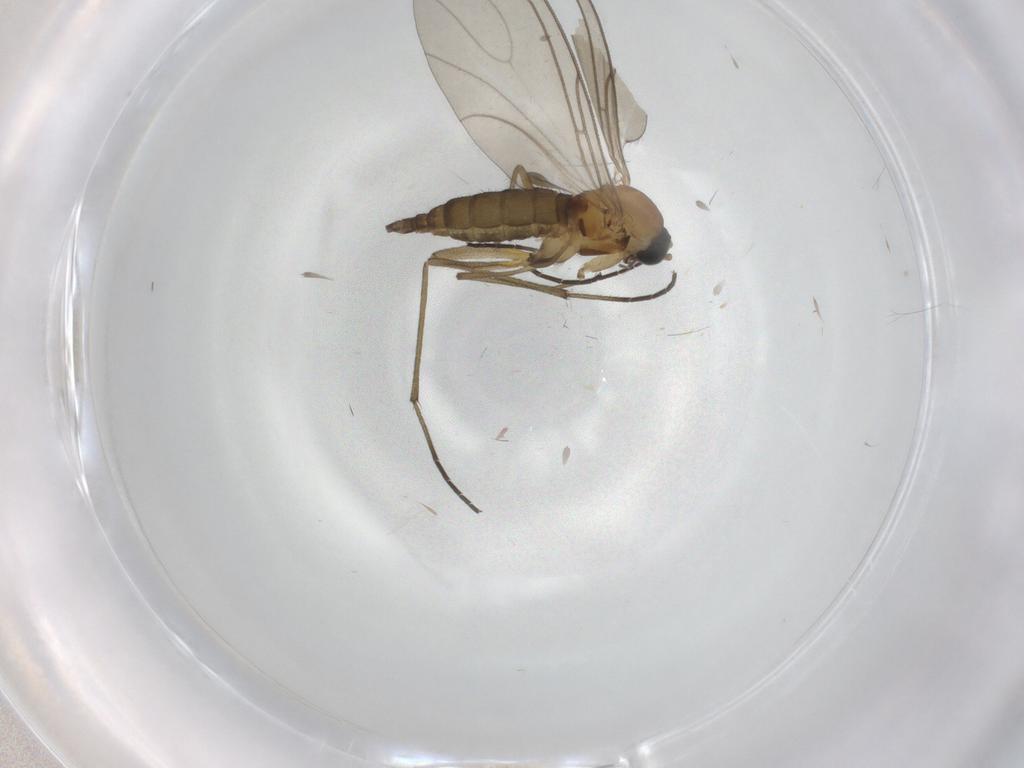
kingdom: Animalia
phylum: Arthropoda
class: Insecta
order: Diptera
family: Sciaridae
